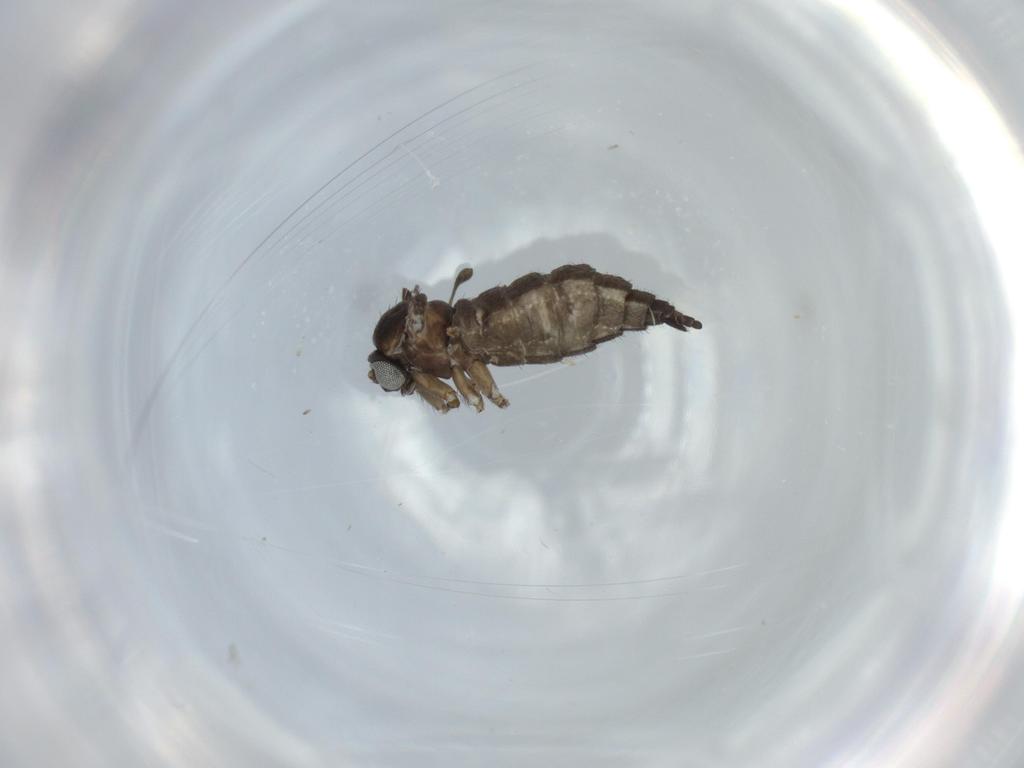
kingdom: Animalia
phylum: Arthropoda
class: Insecta
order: Diptera
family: Sciaridae
